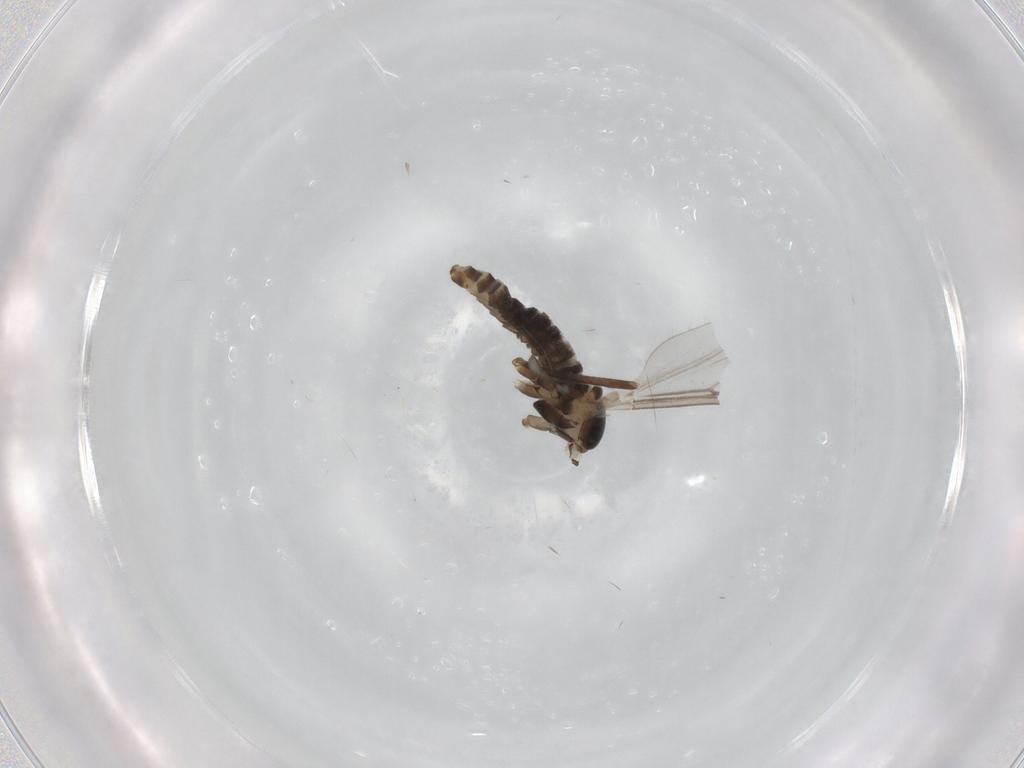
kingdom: Animalia
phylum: Arthropoda
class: Insecta
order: Diptera
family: Cecidomyiidae
